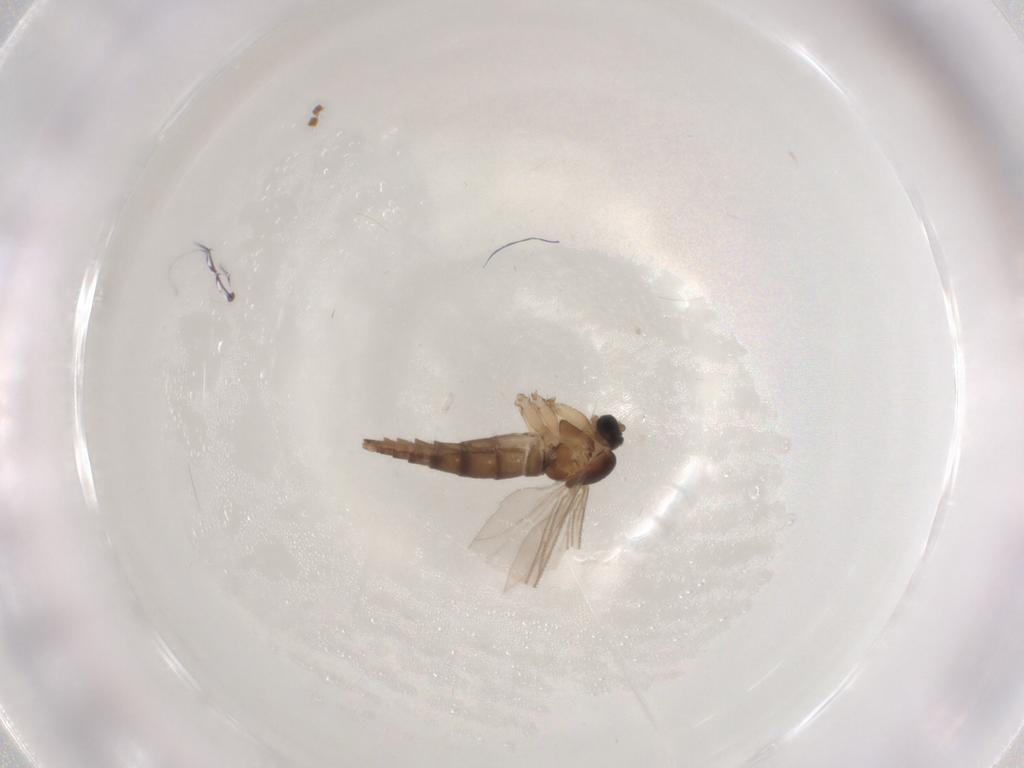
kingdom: Animalia
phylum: Arthropoda
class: Insecta
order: Diptera
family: Sciaridae
